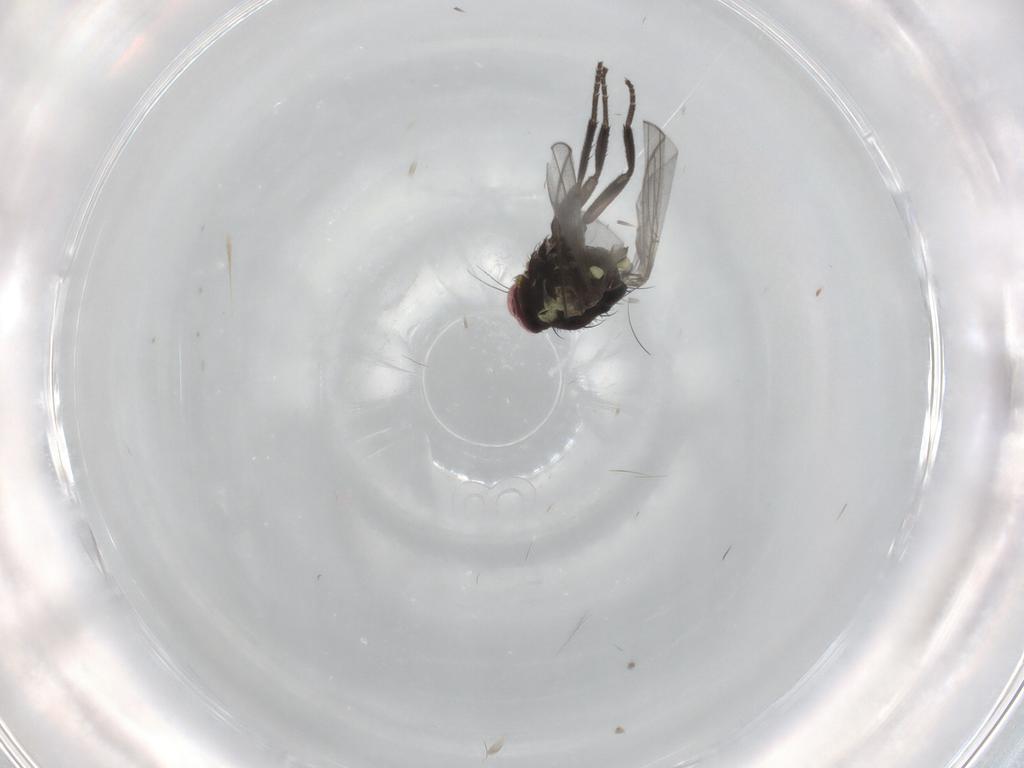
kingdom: Animalia
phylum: Arthropoda
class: Insecta
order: Diptera
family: Agromyzidae
